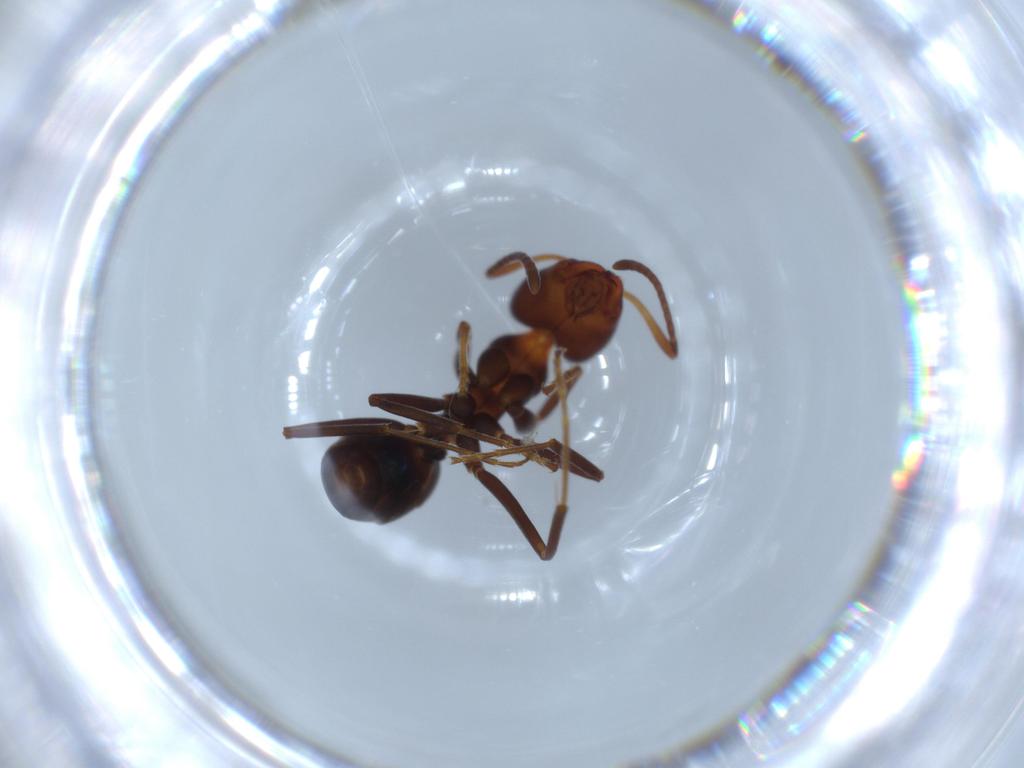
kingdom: Animalia
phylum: Arthropoda
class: Insecta
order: Hymenoptera
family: Formicidae
